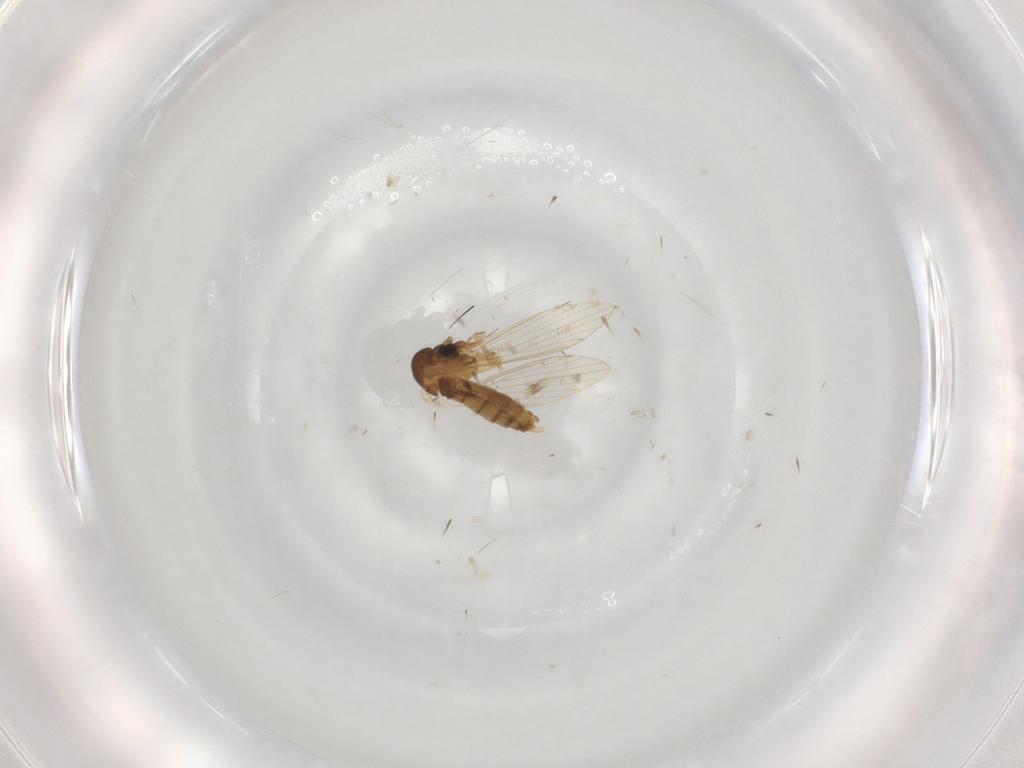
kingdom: Animalia
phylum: Arthropoda
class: Insecta
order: Diptera
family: Psychodidae
